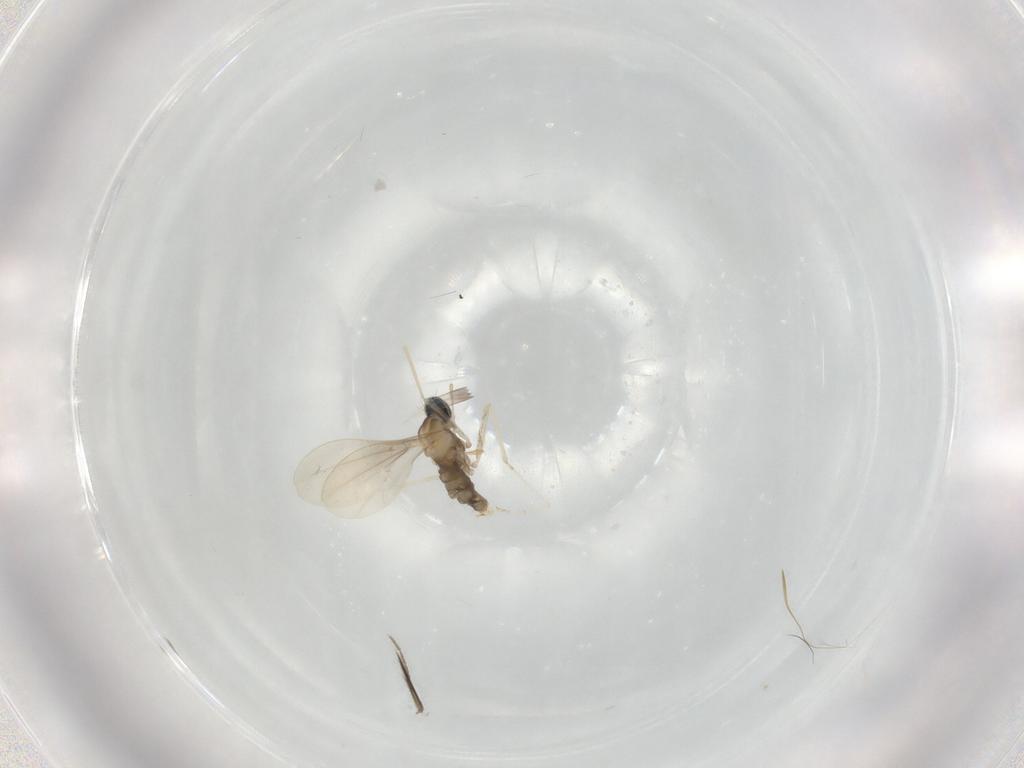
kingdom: Animalia
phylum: Arthropoda
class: Insecta
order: Diptera
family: Cecidomyiidae
